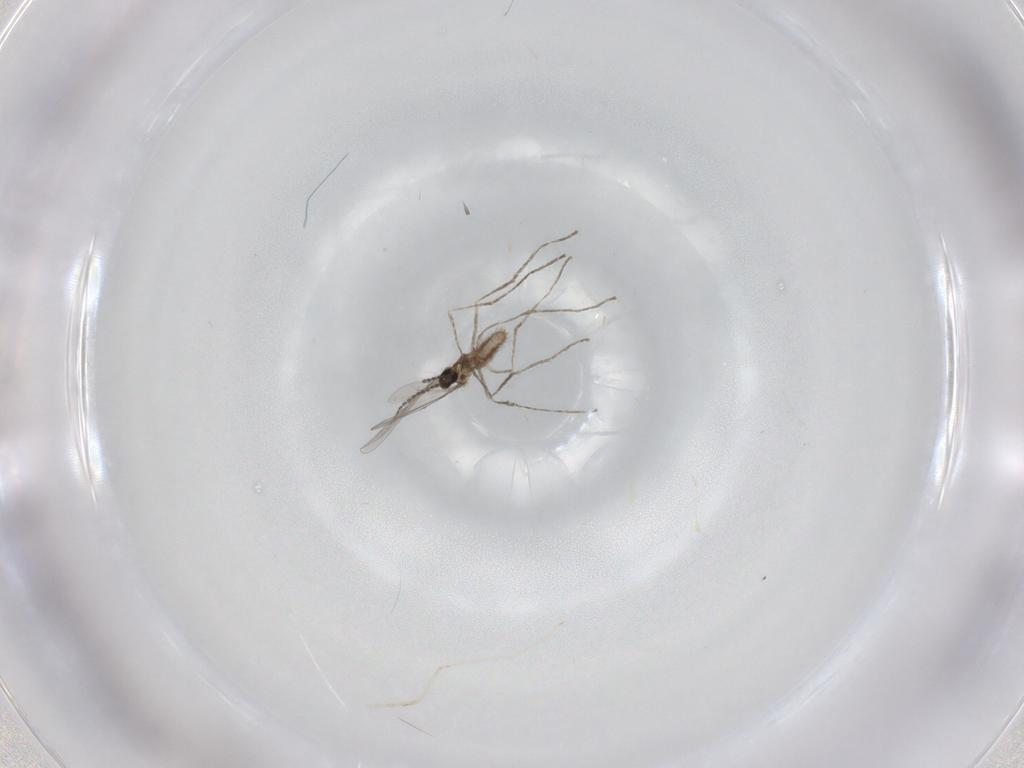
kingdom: Animalia
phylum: Arthropoda
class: Insecta
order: Diptera
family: Cecidomyiidae
